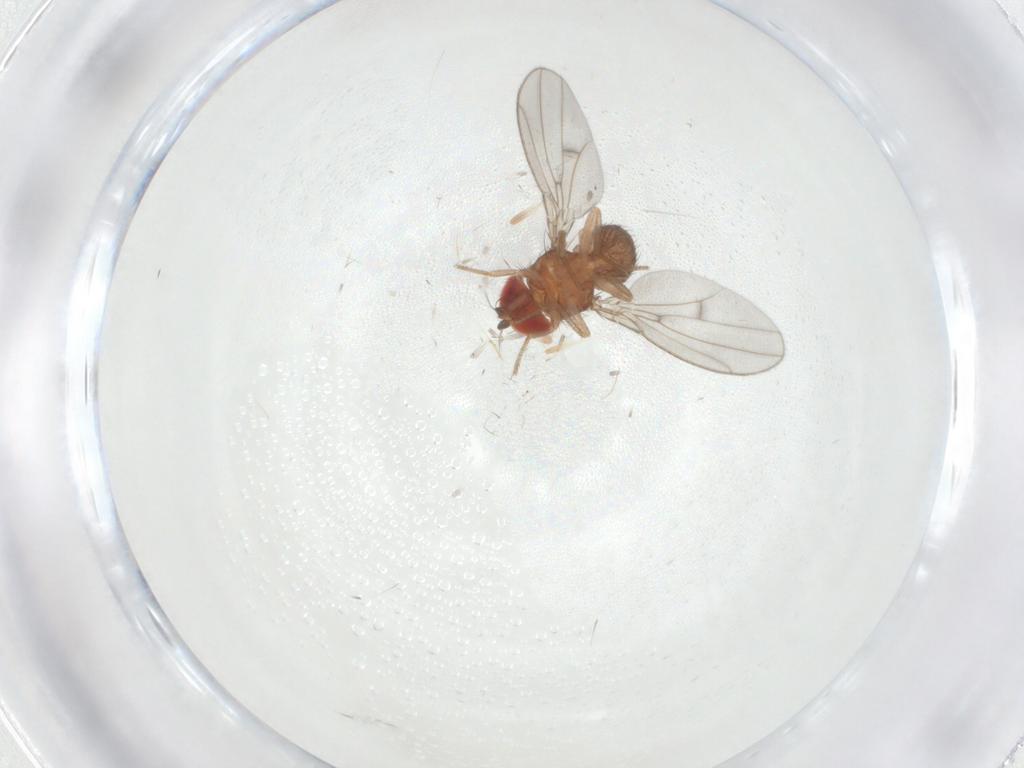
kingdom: Animalia
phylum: Arthropoda
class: Insecta
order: Diptera
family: Drosophilidae
